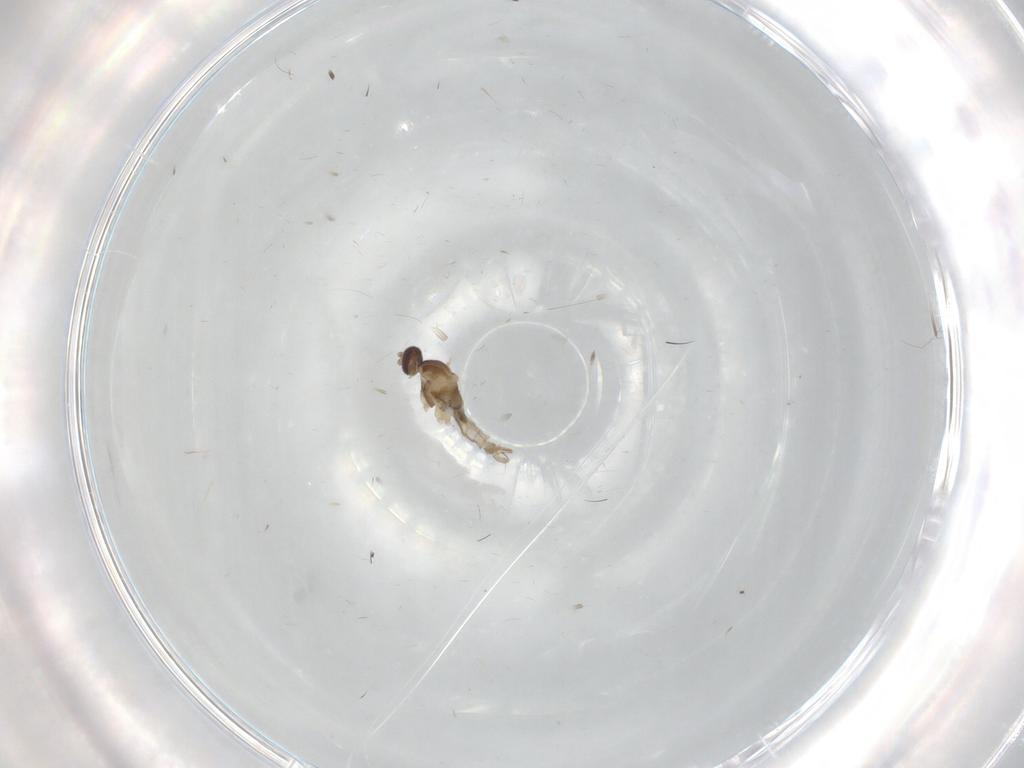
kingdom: Animalia
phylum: Arthropoda
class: Insecta
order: Diptera
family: Cecidomyiidae
